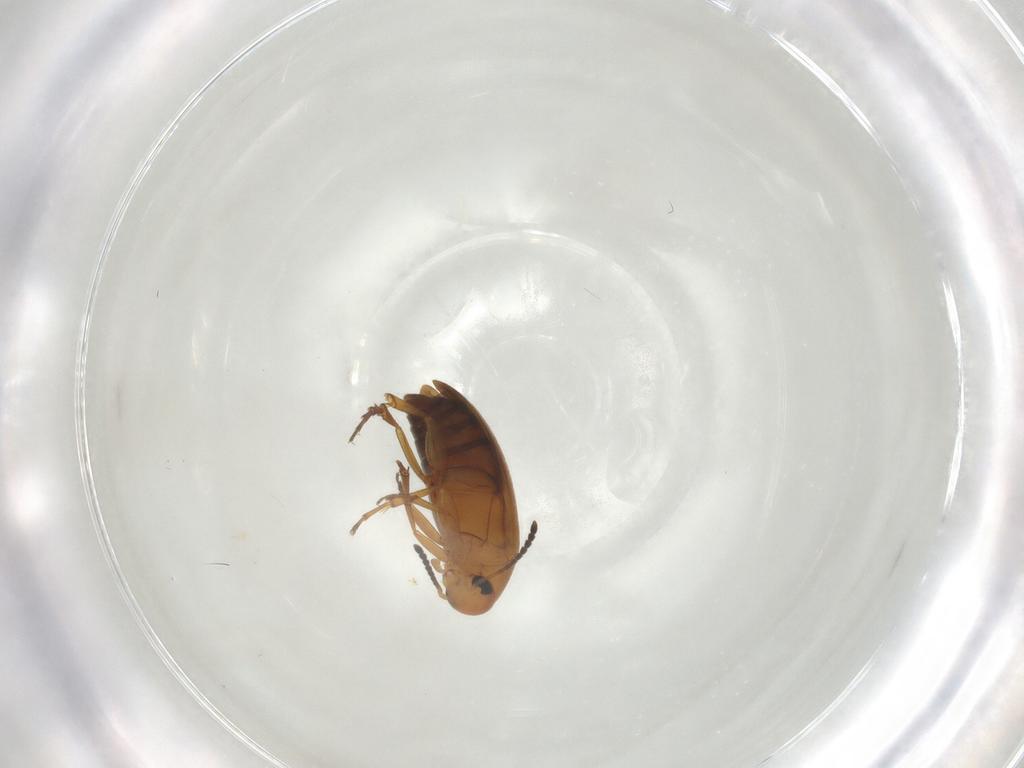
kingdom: Animalia
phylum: Arthropoda
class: Insecta
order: Coleoptera
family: Scraptiidae
